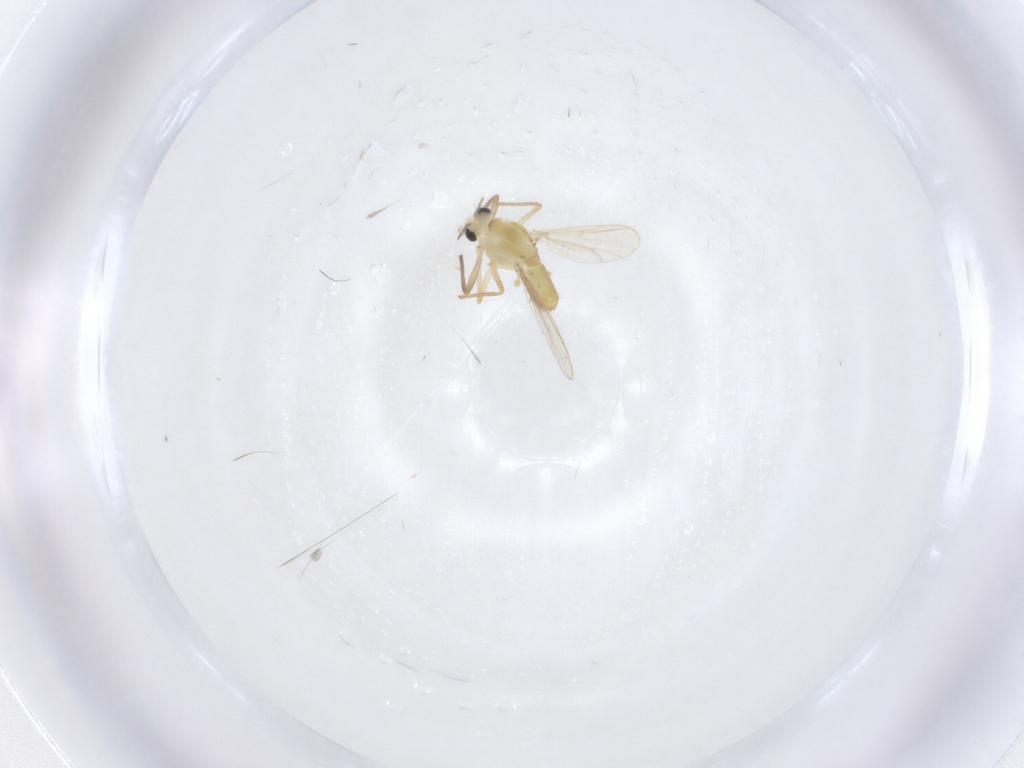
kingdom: Animalia
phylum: Arthropoda
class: Insecta
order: Diptera
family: Chironomidae
